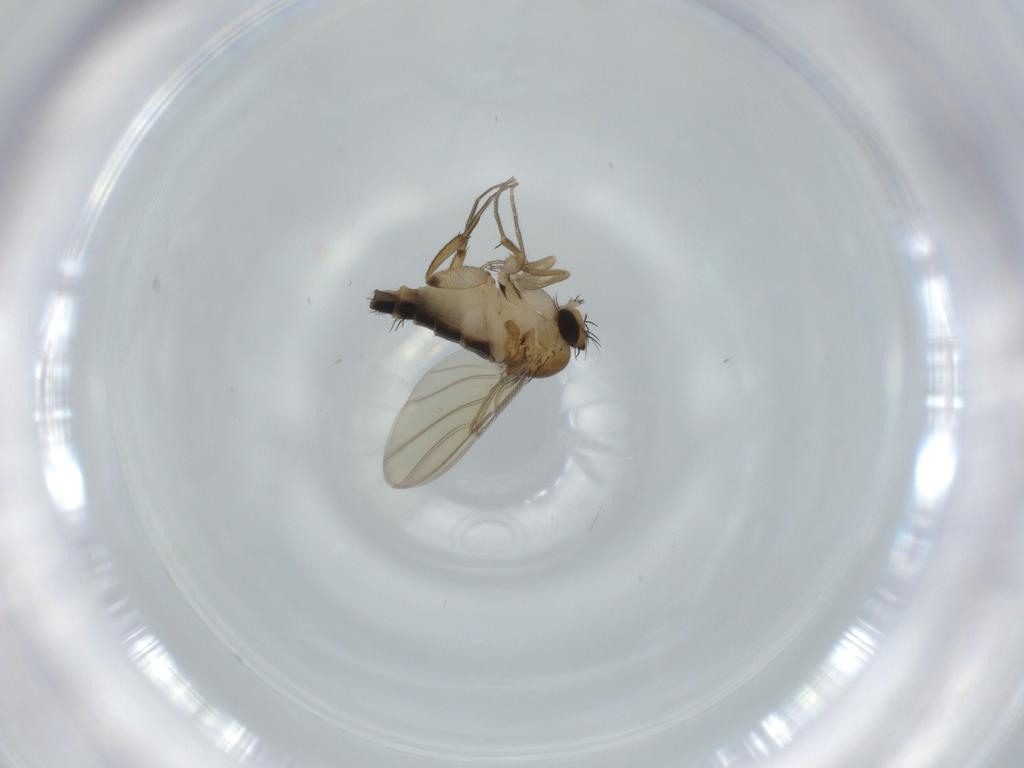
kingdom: Animalia
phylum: Arthropoda
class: Insecta
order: Diptera
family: Phoridae
